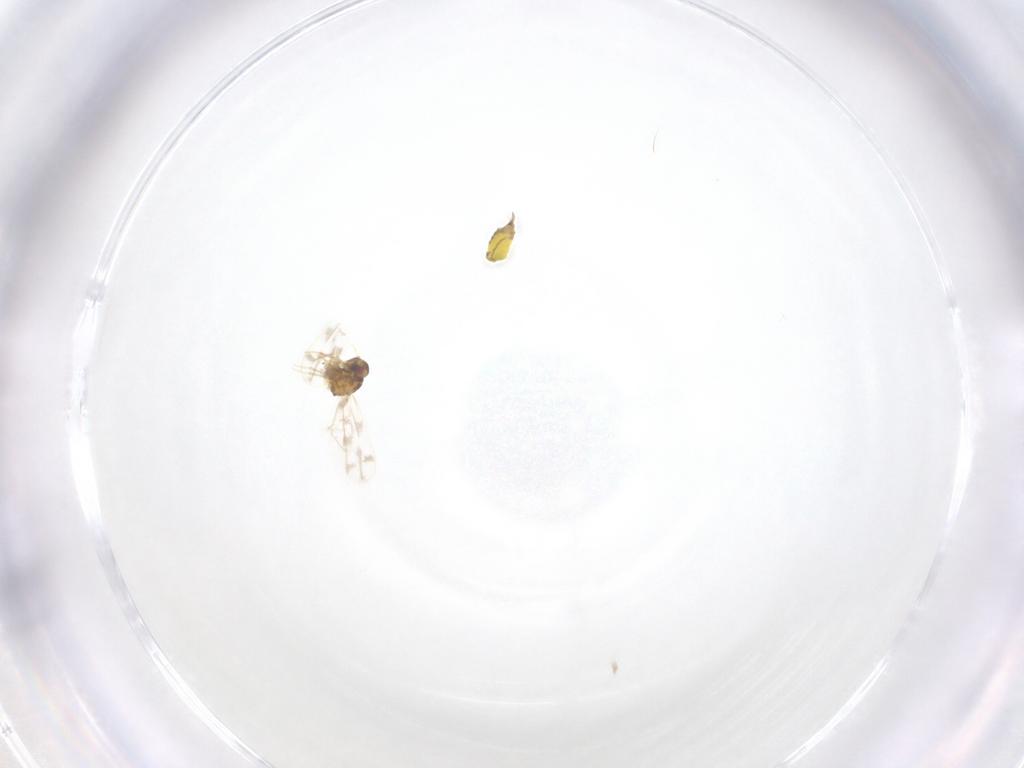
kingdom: Animalia
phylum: Arthropoda
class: Insecta
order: Hemiptera
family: Aleyrodidae
